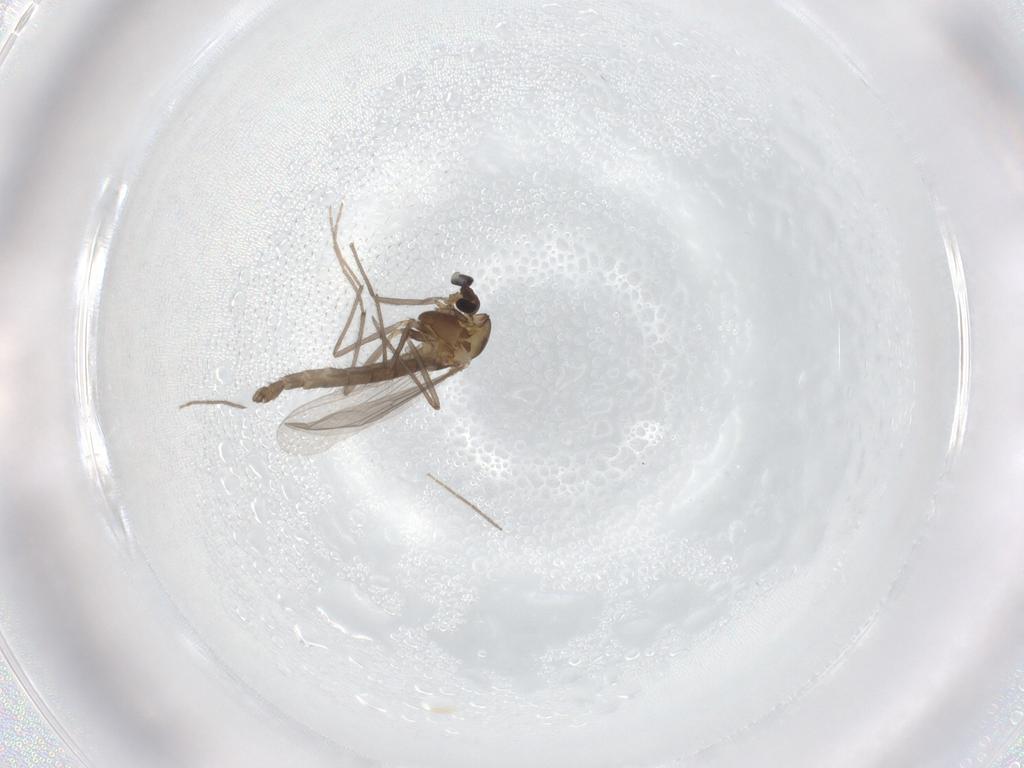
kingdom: Animalia
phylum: Arthropoda
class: Insecta
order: Diptera
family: Chironomidae
